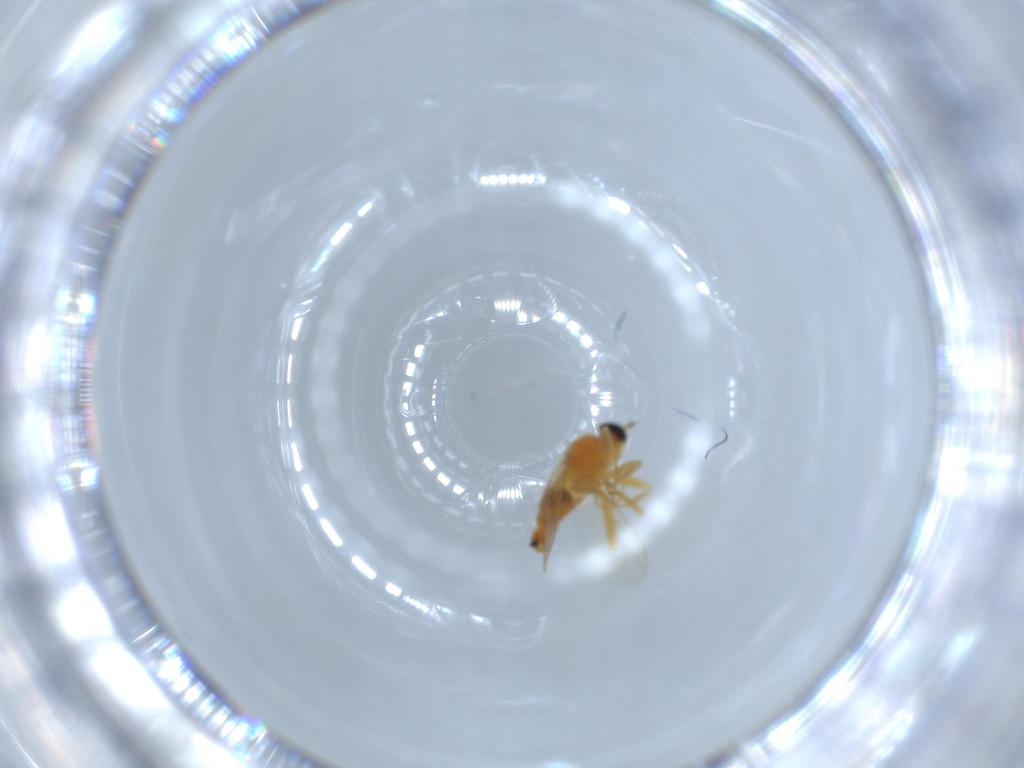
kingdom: Animalia
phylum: Arthropoda
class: Insecta
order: Diptera
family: Hybotidae
